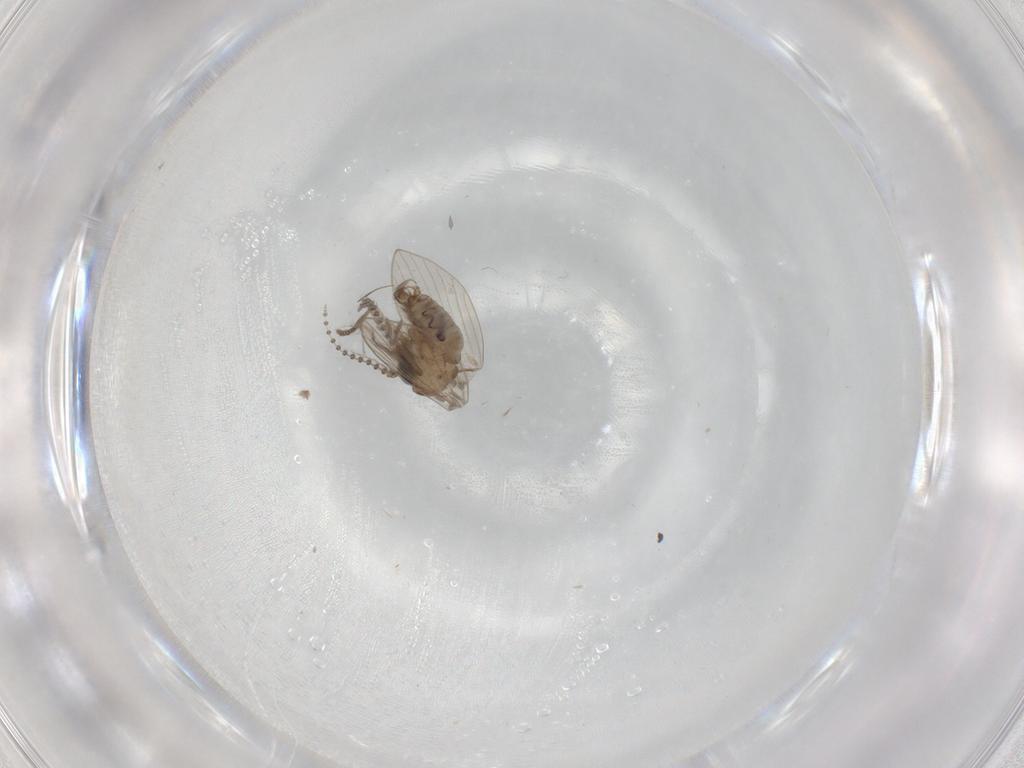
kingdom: Animalia
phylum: Arthropoda
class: Insecta
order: Diptera
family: Psychodidae
